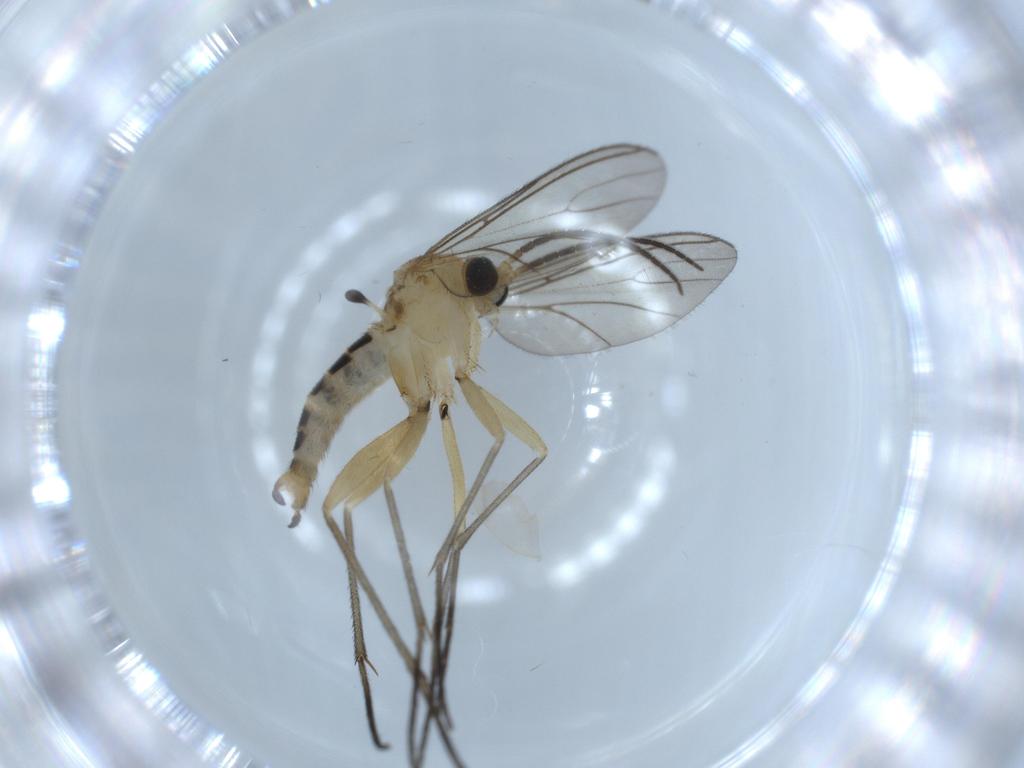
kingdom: Animalia
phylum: Arthropoda
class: Insecta
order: Diptera
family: Sciaridae
